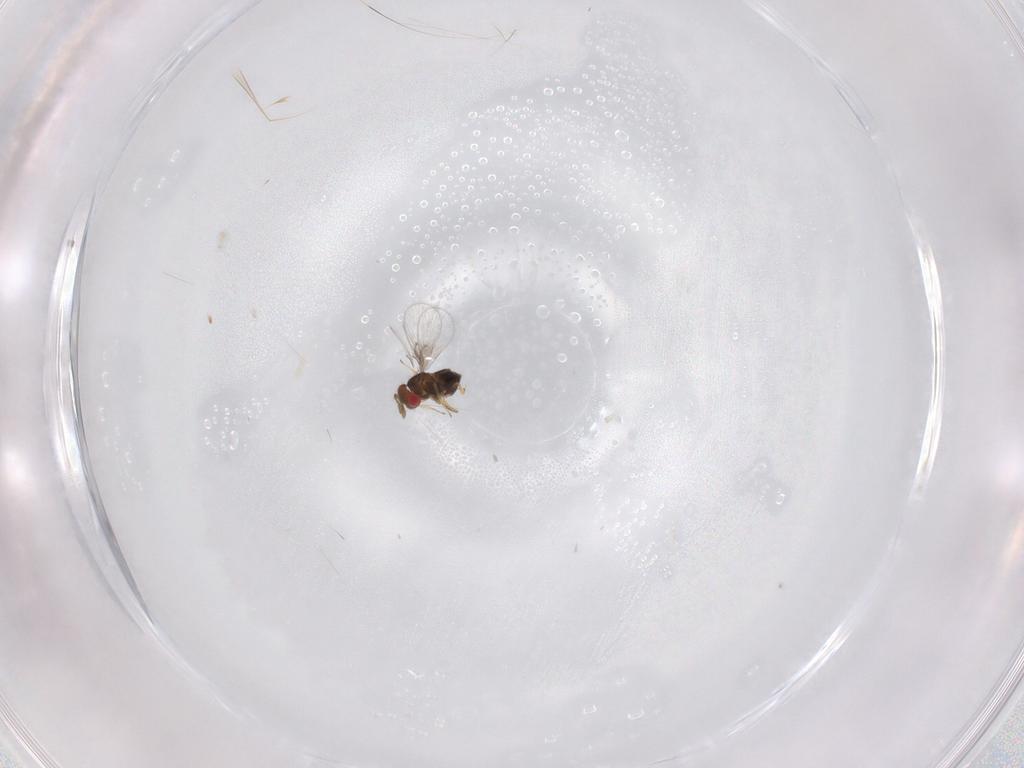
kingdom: Animalia
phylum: Arthropoda
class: Insecta
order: Hymenoptera
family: Trichogrammatidae
